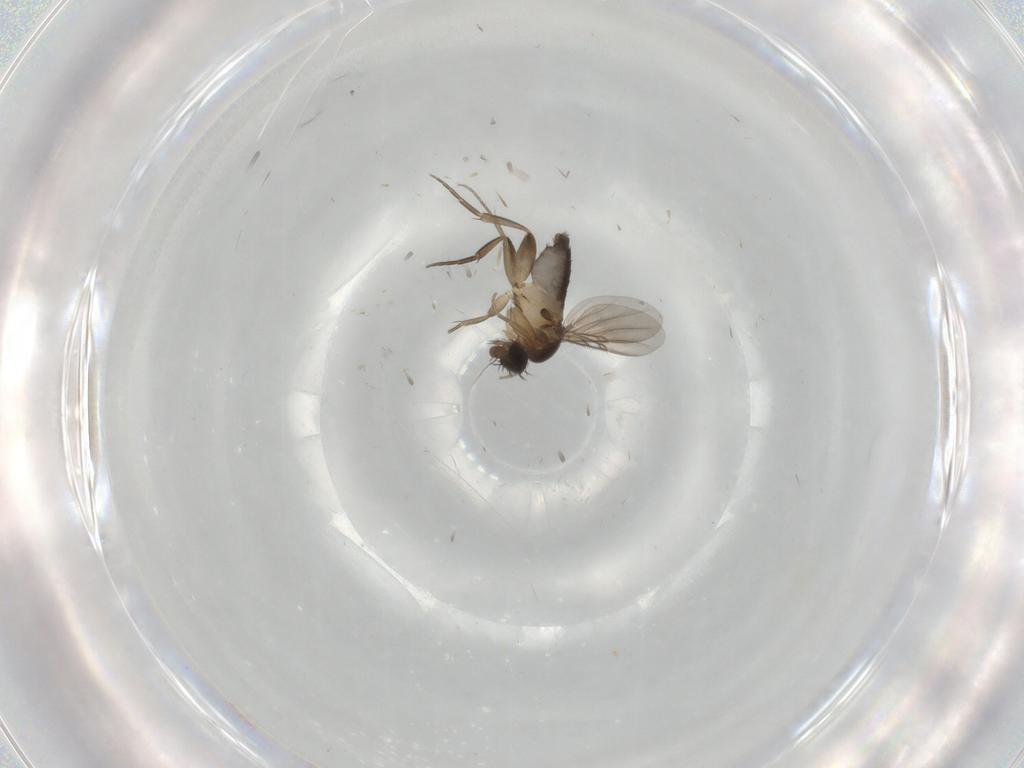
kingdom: Animalia
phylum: Arthropoda
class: Insecta
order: Diptera
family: Phoridae
